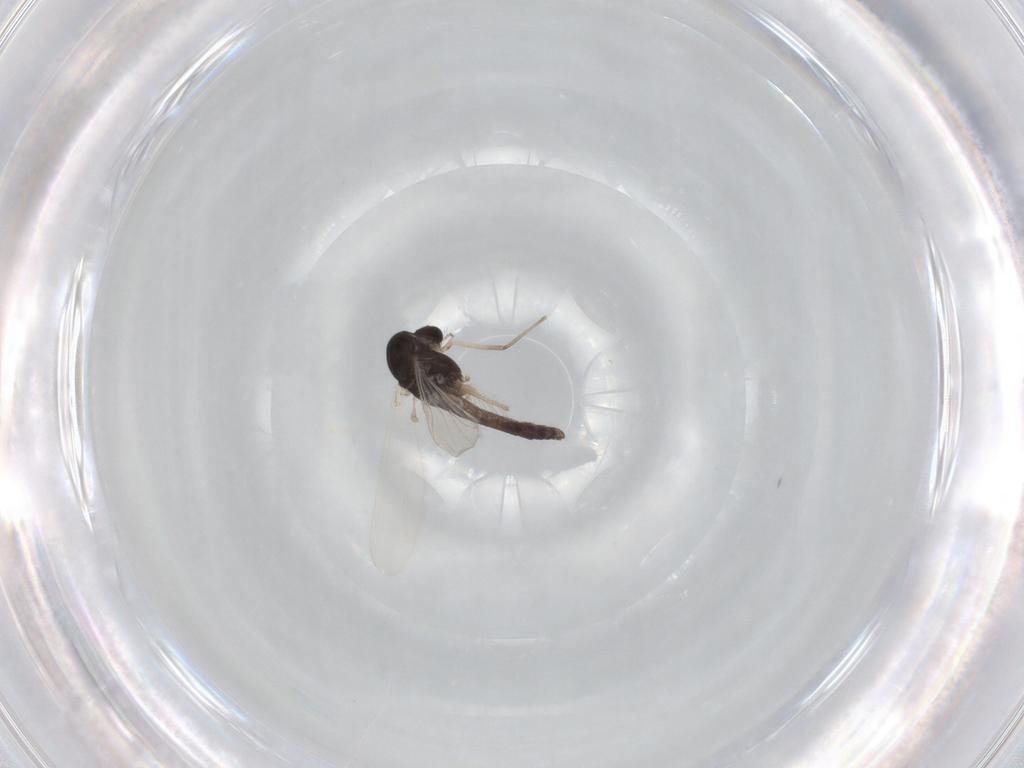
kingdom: Animalia
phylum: Arthropoda
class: Insecta
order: Diptera
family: Chironomidae
